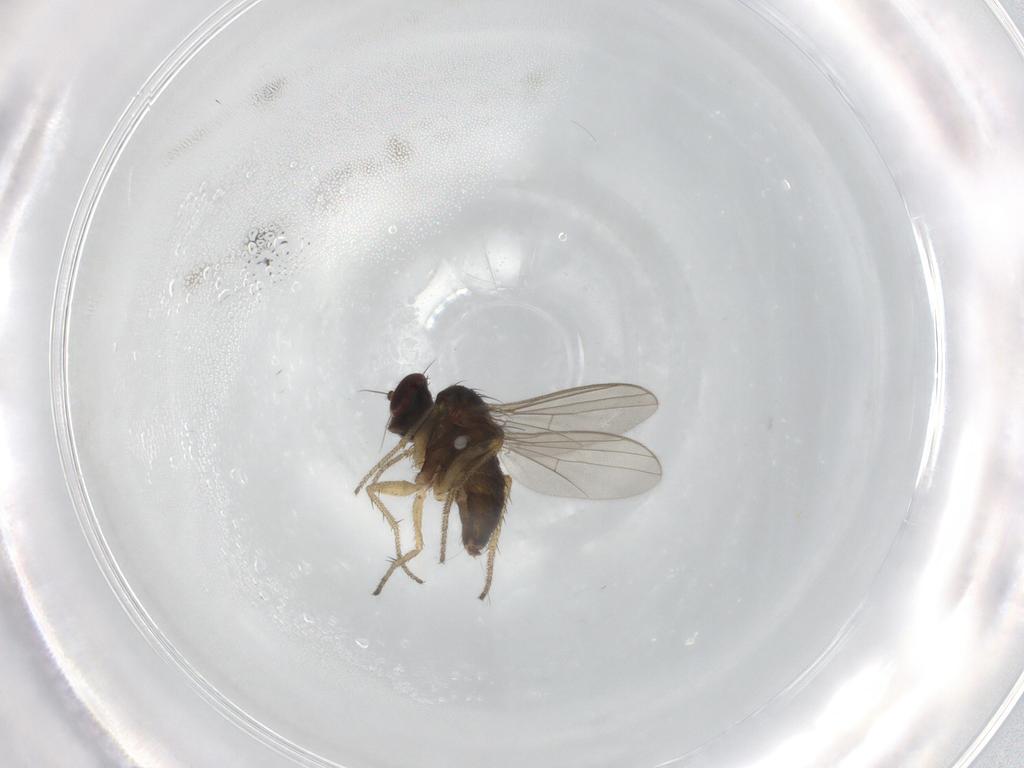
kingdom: Animalia
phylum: Arthropoda
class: Insecta
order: Diptera
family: Dolichopodidae
